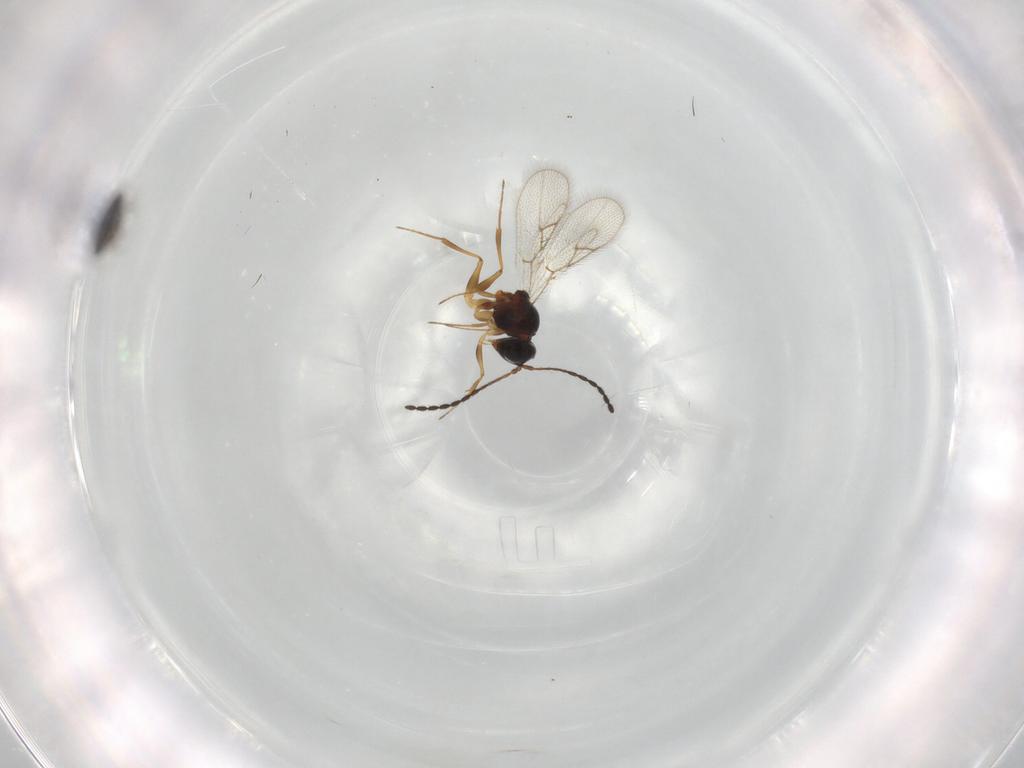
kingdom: Animalia
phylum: Arthropoda
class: Insecta
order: Hymenoptera
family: Figitidae
